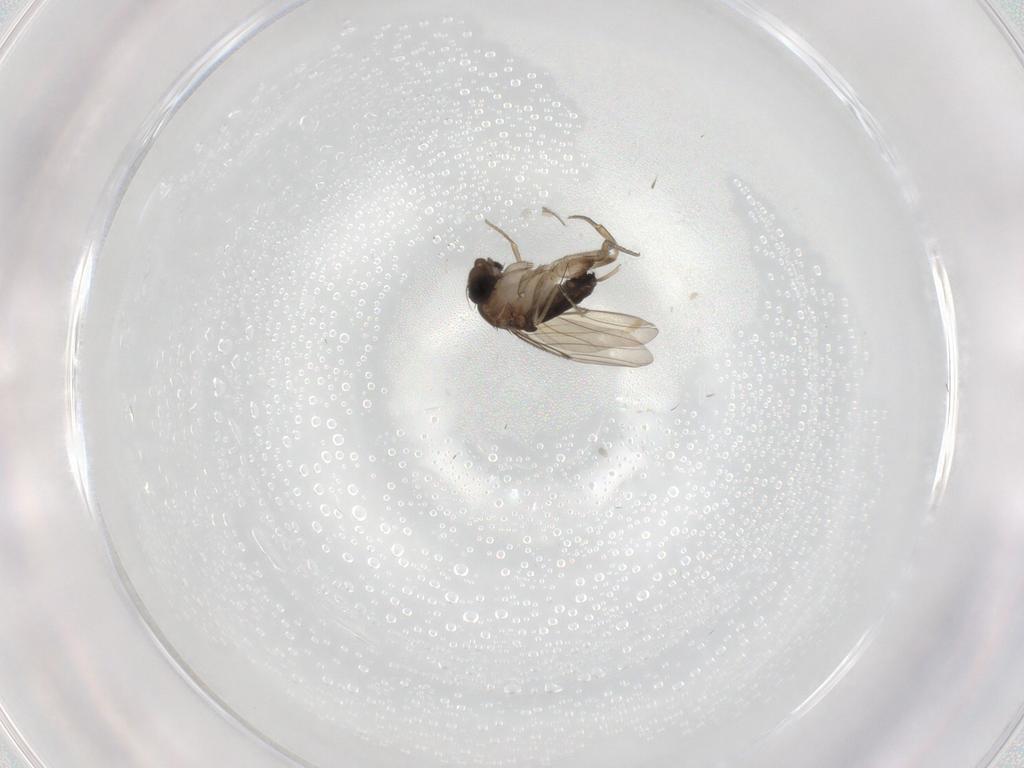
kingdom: Animalia
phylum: Arthropoda
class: Insecta
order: Diptera
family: Phoridae
